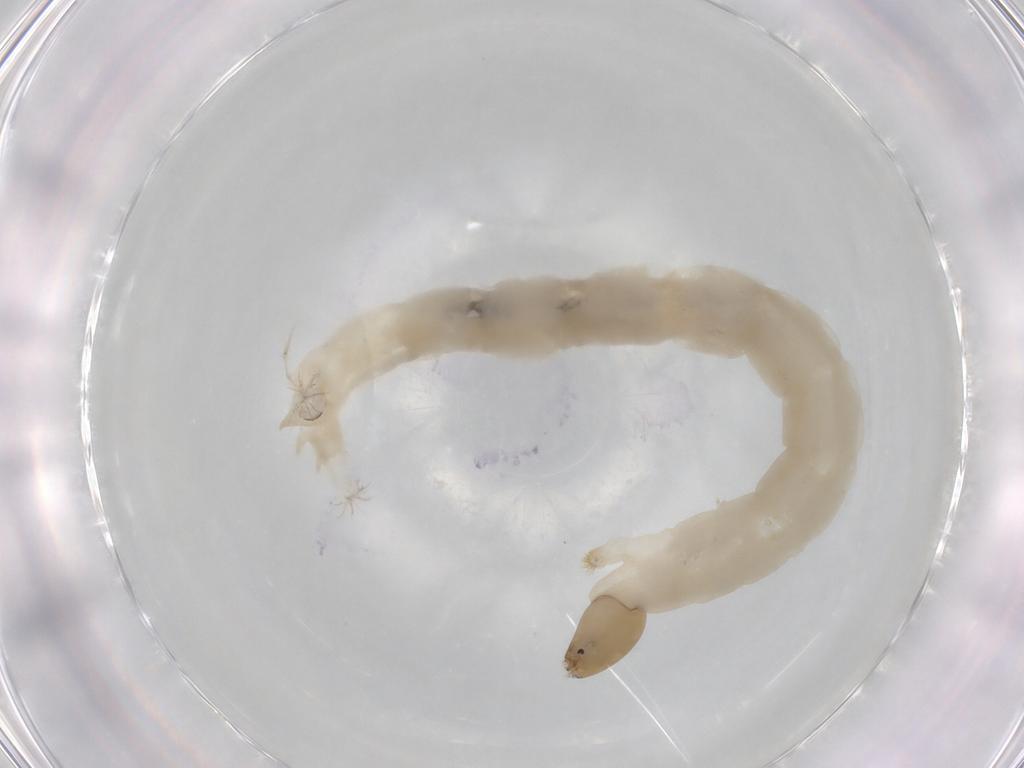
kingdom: Animalia
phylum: Arthropoda
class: Insecta
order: Diptera
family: Chironomidae
